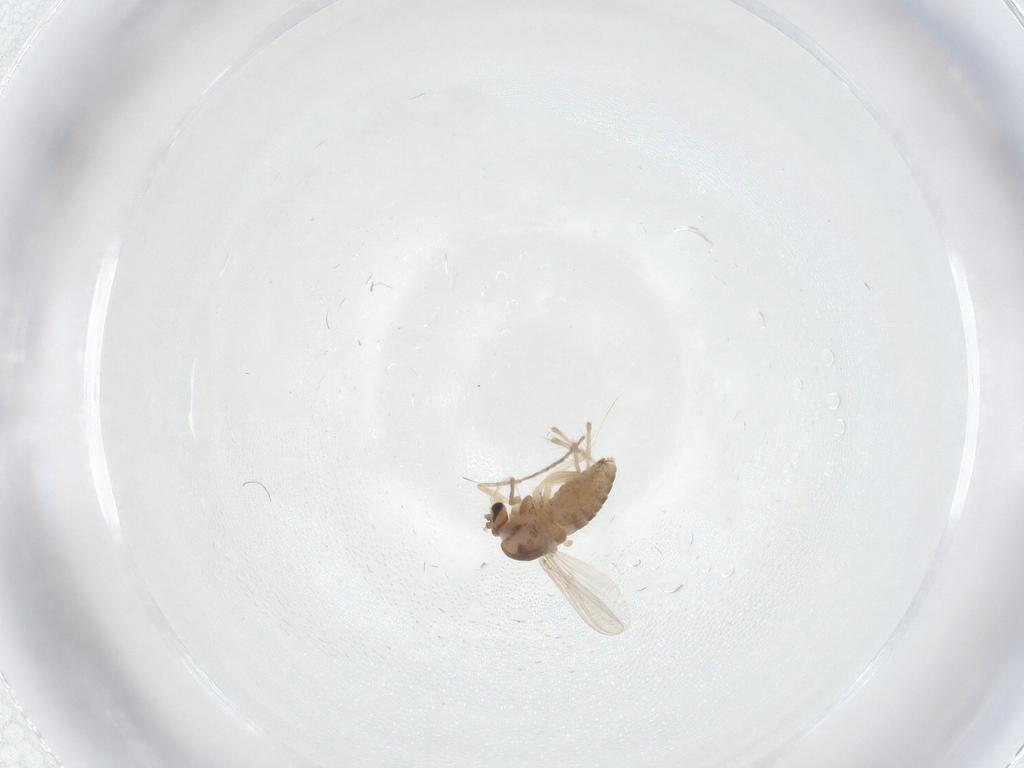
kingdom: Animalia
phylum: Arthropoda
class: Insecta
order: Diptera
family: Chironomidae
